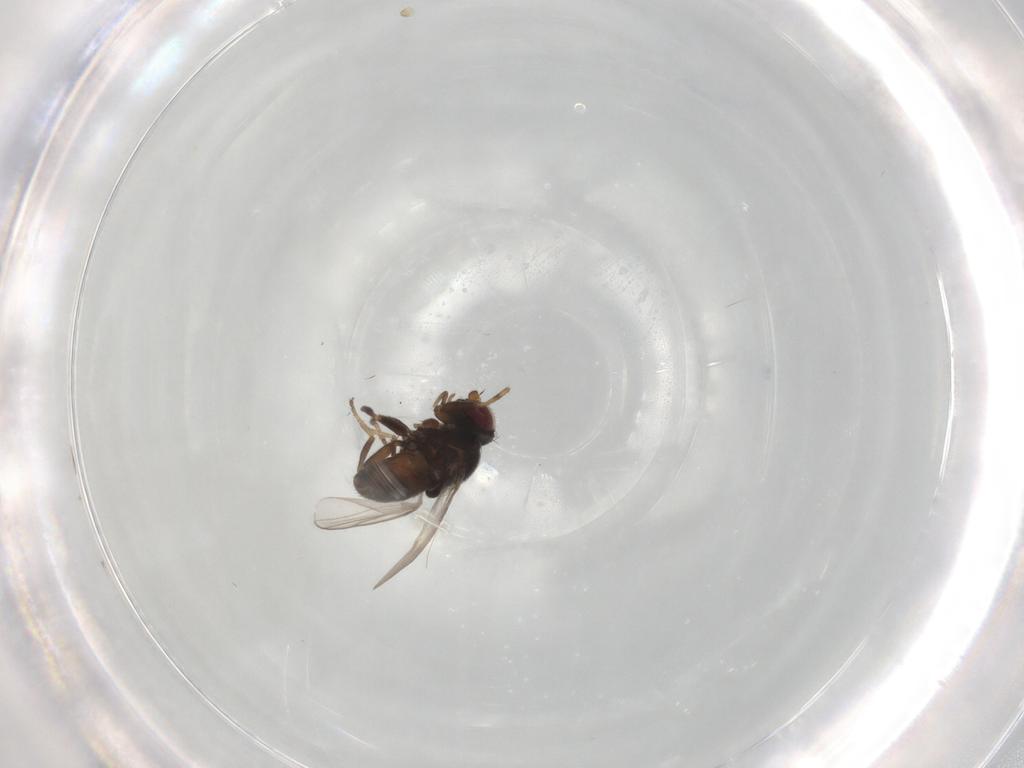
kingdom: Animalia
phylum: Arthropoda
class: Insecta
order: Diptera
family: Chloropidae
